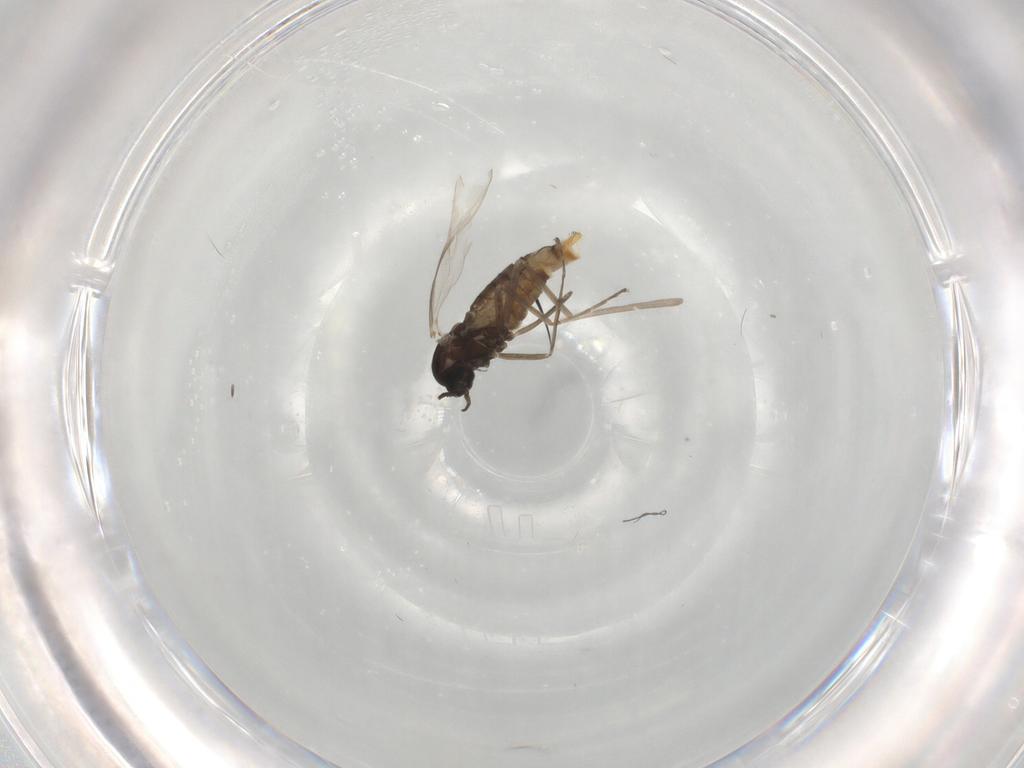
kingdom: Animalia
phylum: Arthropoda
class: Insecta
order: Diptera
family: Cecidomyiidae
